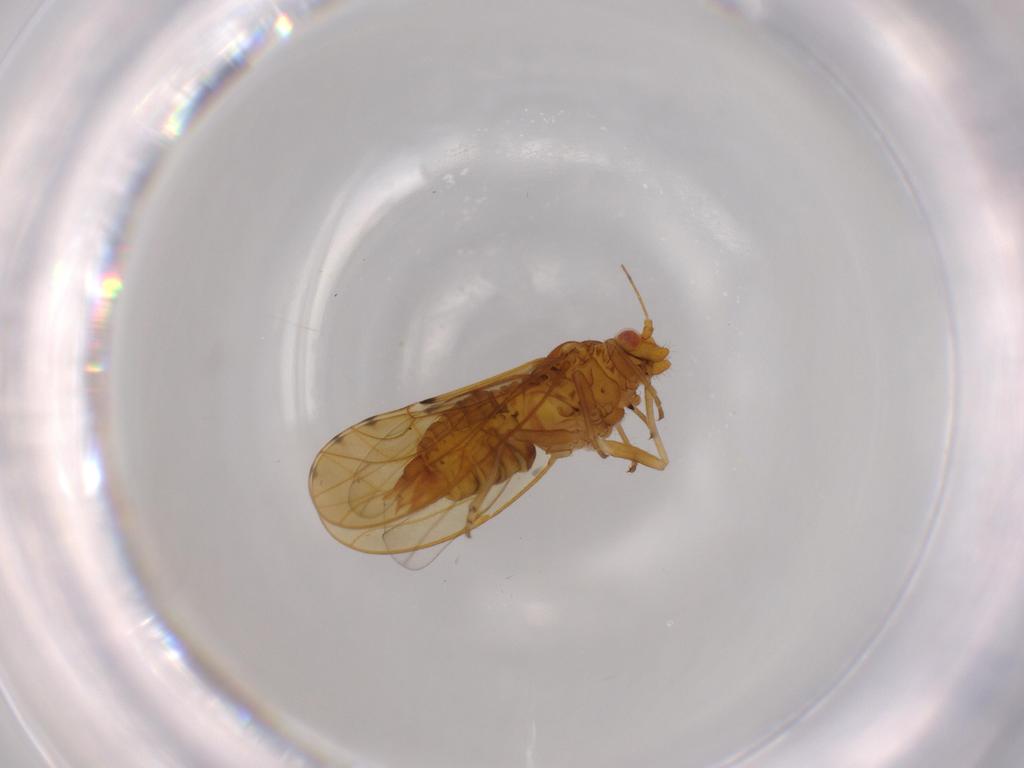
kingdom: Animalia
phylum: Arthropoda
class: Insecta
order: Hemiptera
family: Psylloidea_incertae_sedis
